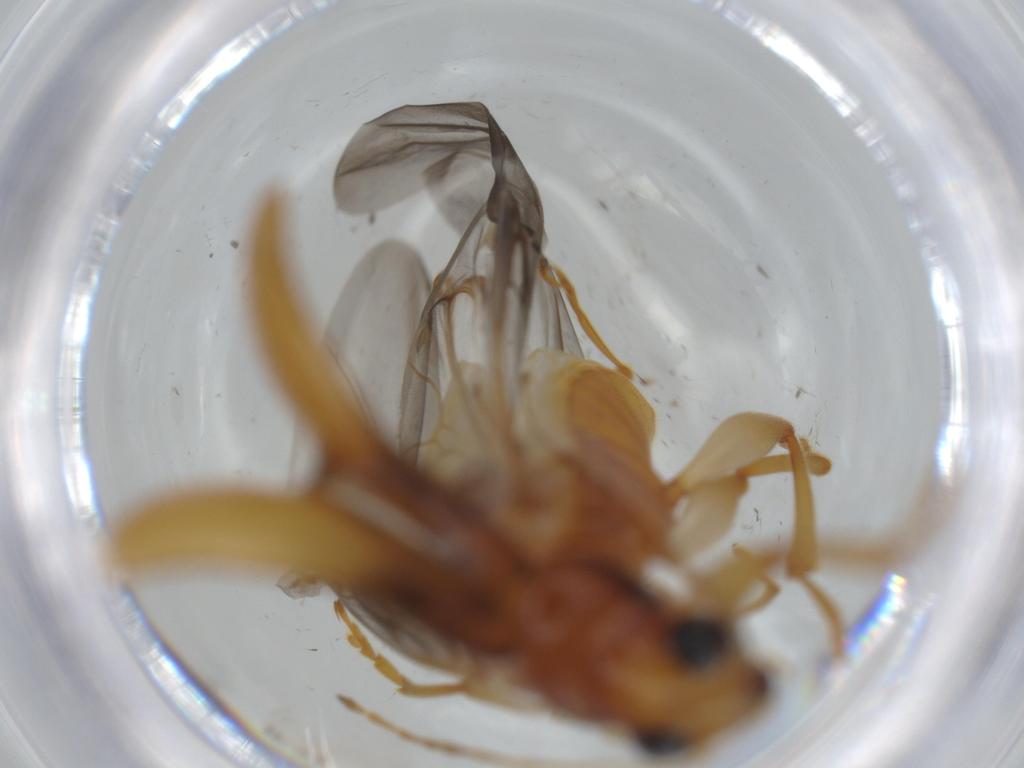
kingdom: Animalia
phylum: Arthropoda
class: Insecta
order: Coleoptera
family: Chrysomelidae
